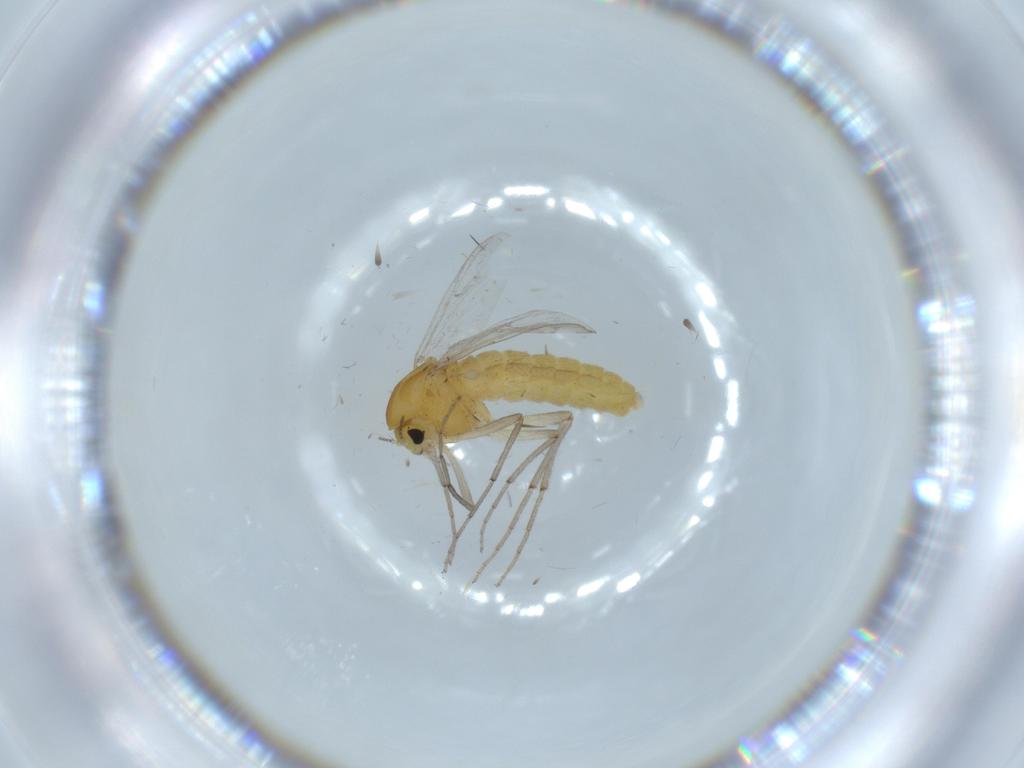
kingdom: Animalia
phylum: Arthropoda
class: Insecta
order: Diptera
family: Chironomidae
